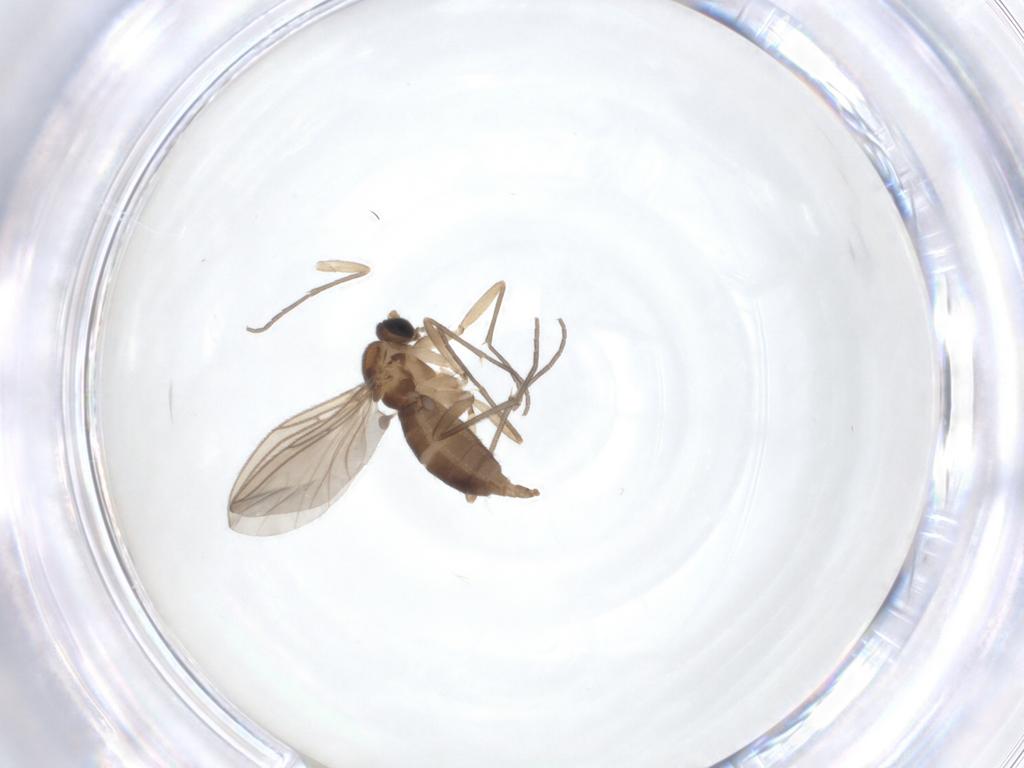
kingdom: Animalia
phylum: Arthropoda
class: Insecta
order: Diptera
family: Sciaridae
